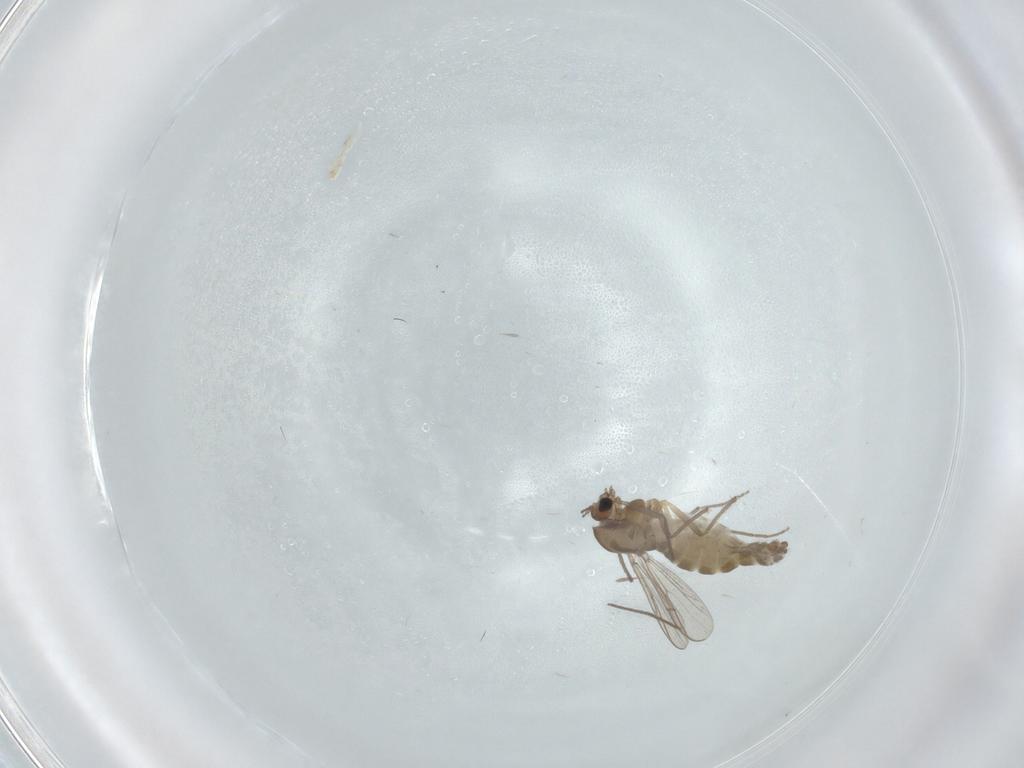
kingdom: Animalia
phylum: Arthropoda
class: Insecta
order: Diptera
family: Chironomidae
